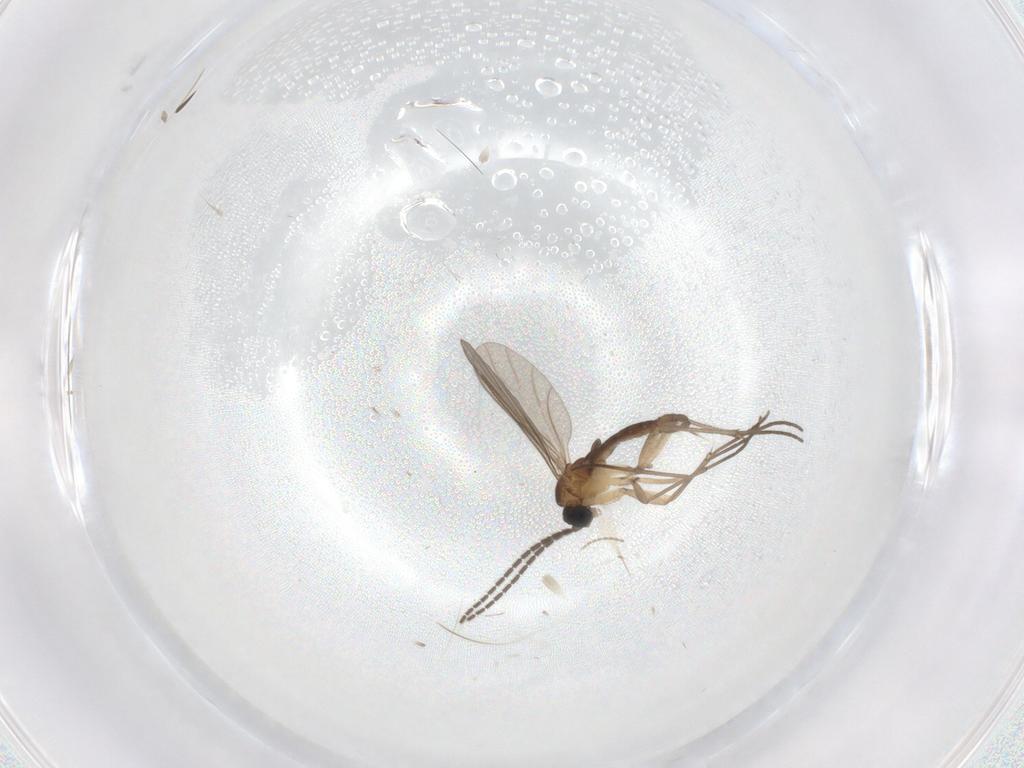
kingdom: Animalia
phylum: Arthropoda
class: Insecta
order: Diptera
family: Sciaridae
